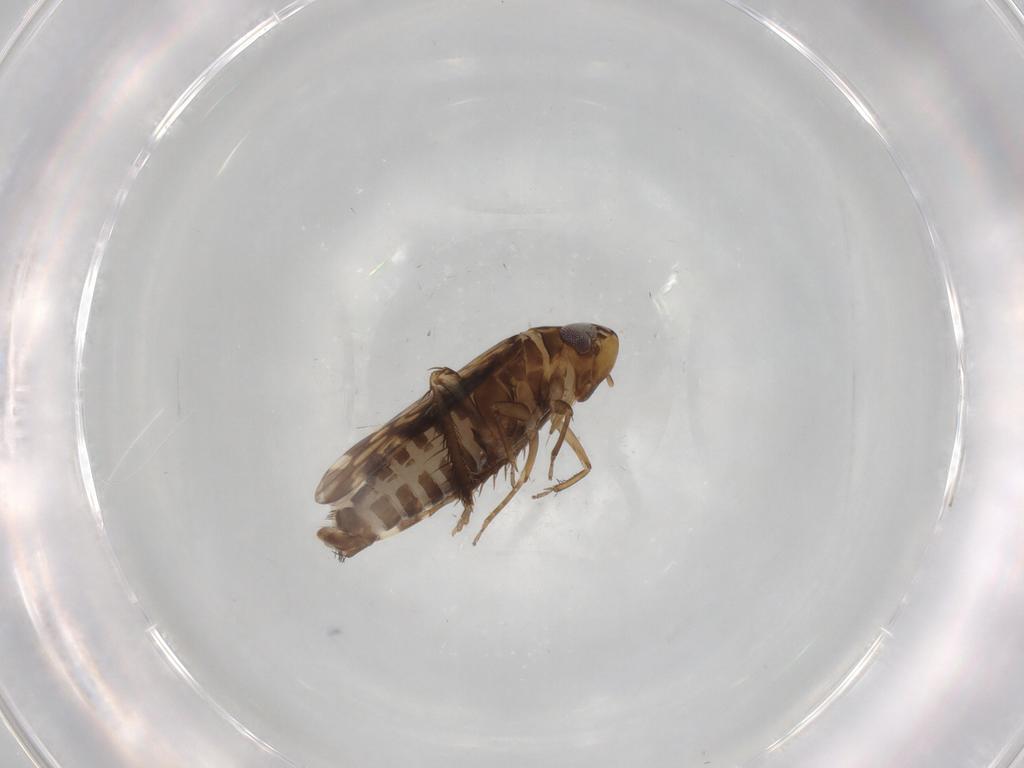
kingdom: Animalia
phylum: Arthropoda
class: Insecta
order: Hemiptera
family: Cicadellidae
